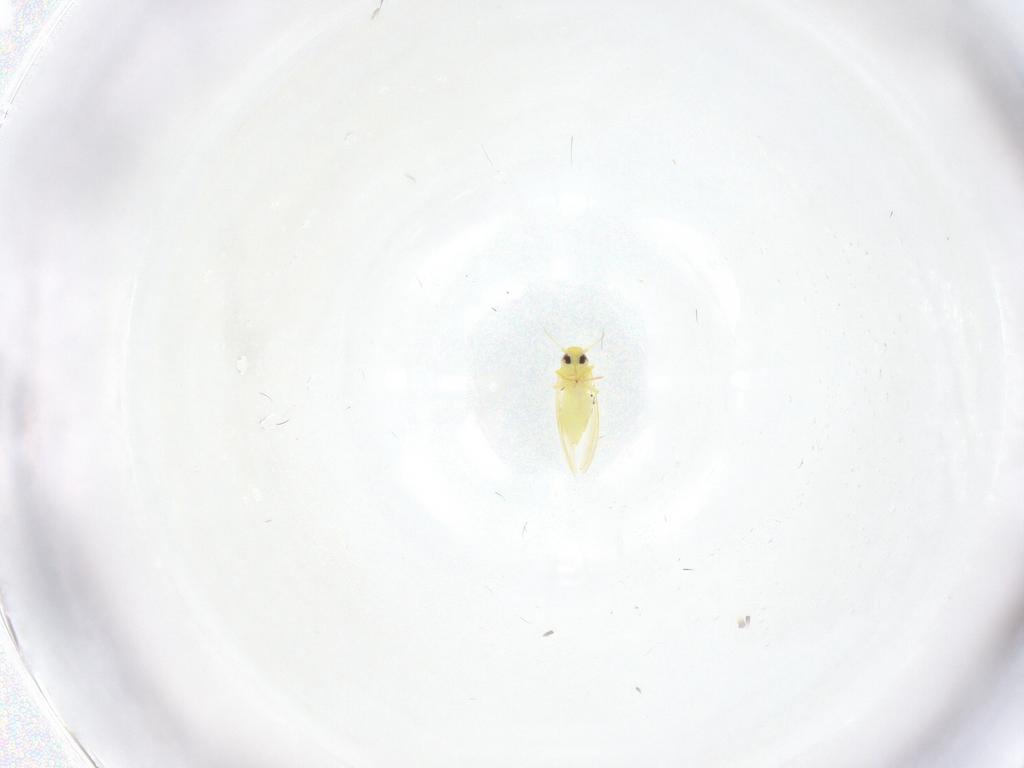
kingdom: Animalia
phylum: Arthropoda
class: Insecta
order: Hemiptera
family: Aleyrodidae
